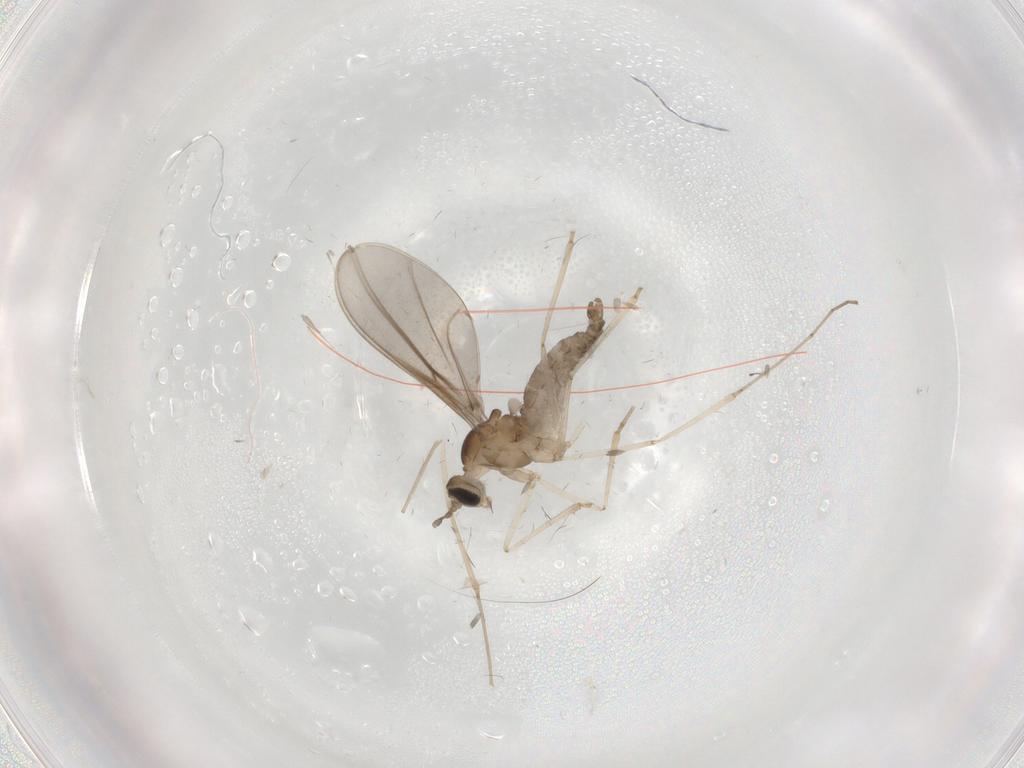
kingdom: Animalia
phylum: Arthropoda
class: Insecta
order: Diptera
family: Cecidomyiidae
